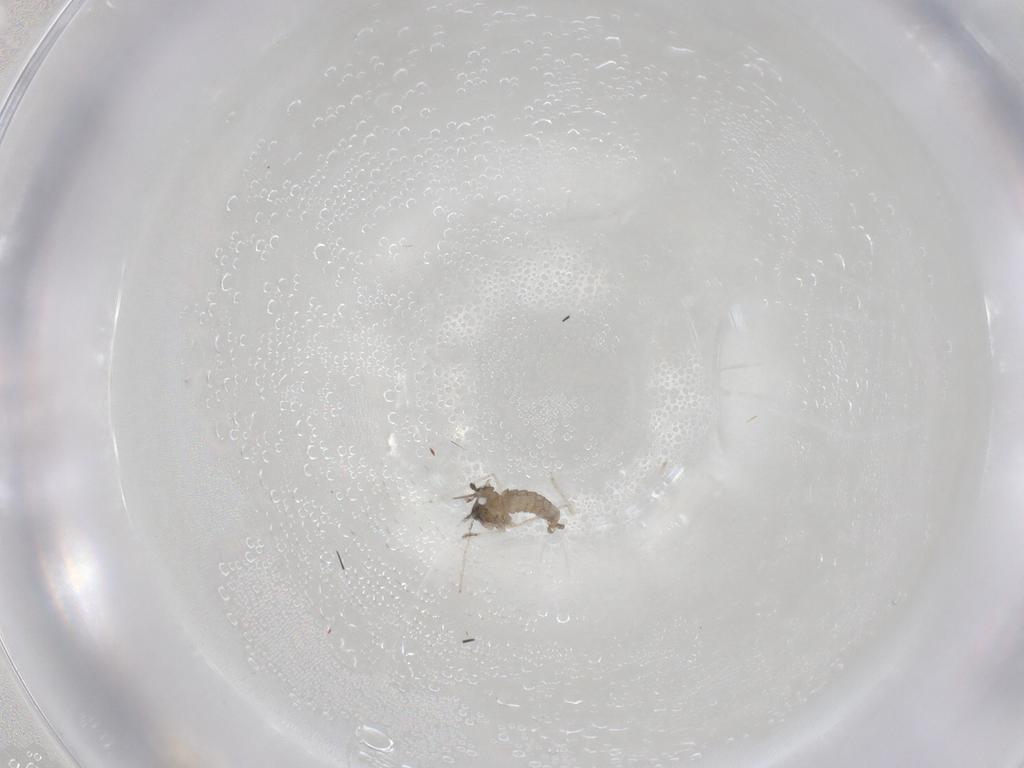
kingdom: Animalia
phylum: Arthropoda
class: Insecta
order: Diptera
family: Cecidomyiidae
